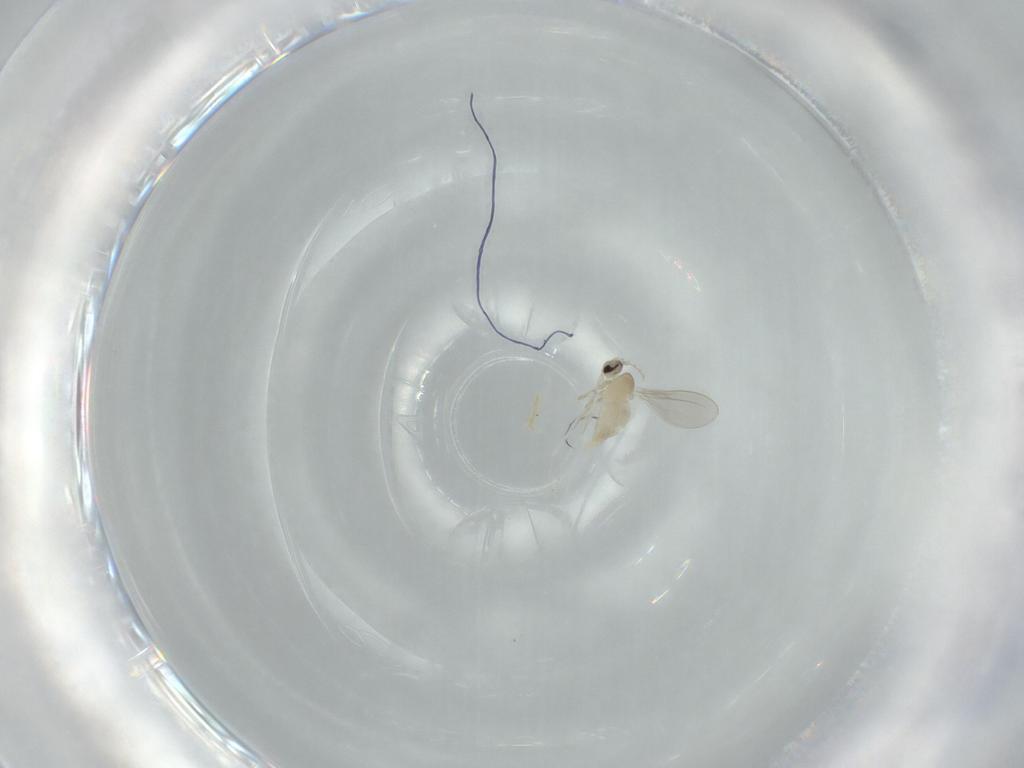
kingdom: Animalia
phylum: Arthropoda
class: Insecta
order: Diptera
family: Cecidomyiidae
